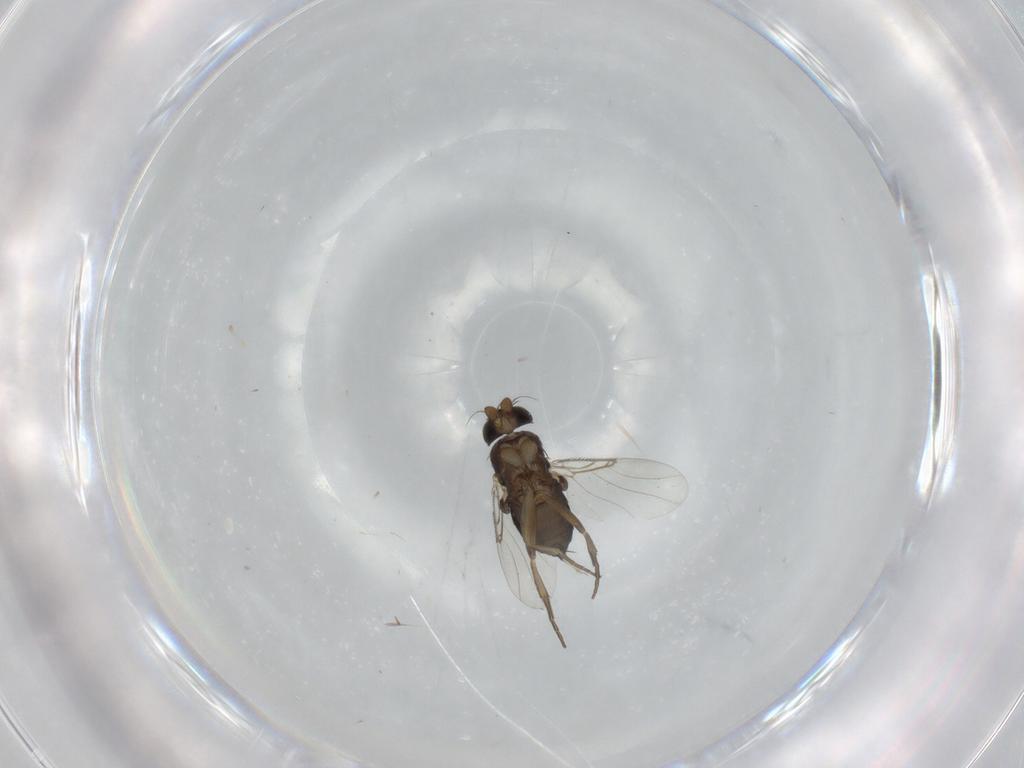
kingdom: Animalia
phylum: Arthropoda
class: Insecta
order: Diptera
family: Phoridae
